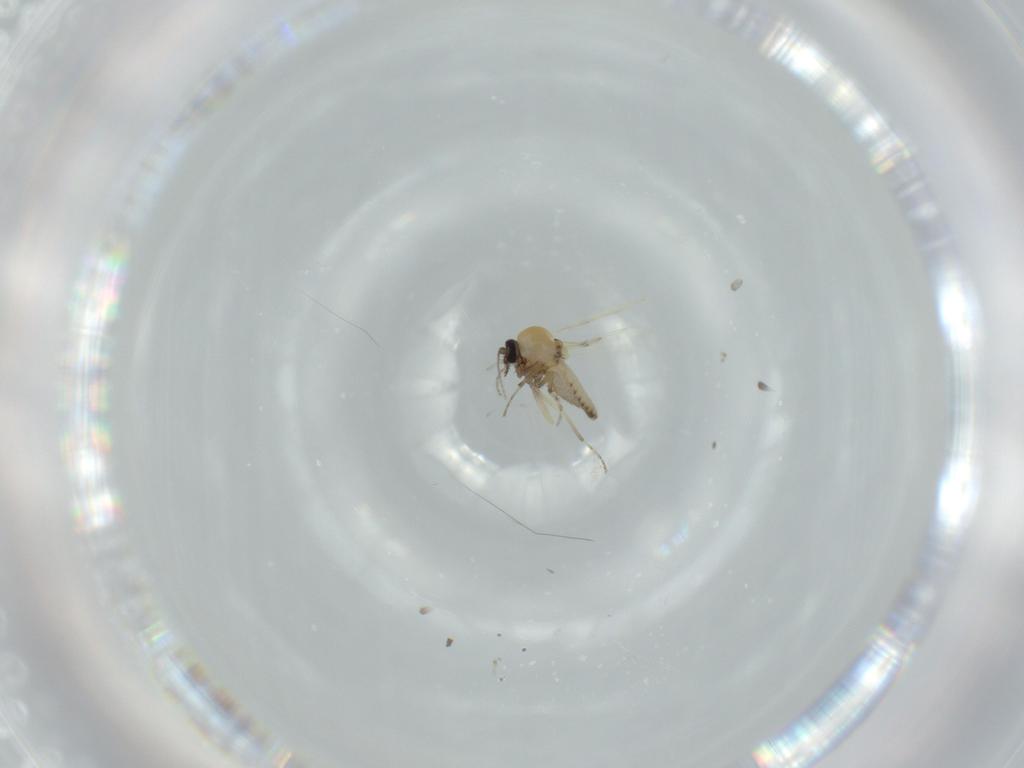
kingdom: Animalia
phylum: Arthropoda
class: Insecta
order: Diptera
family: Ceratopogonidae
